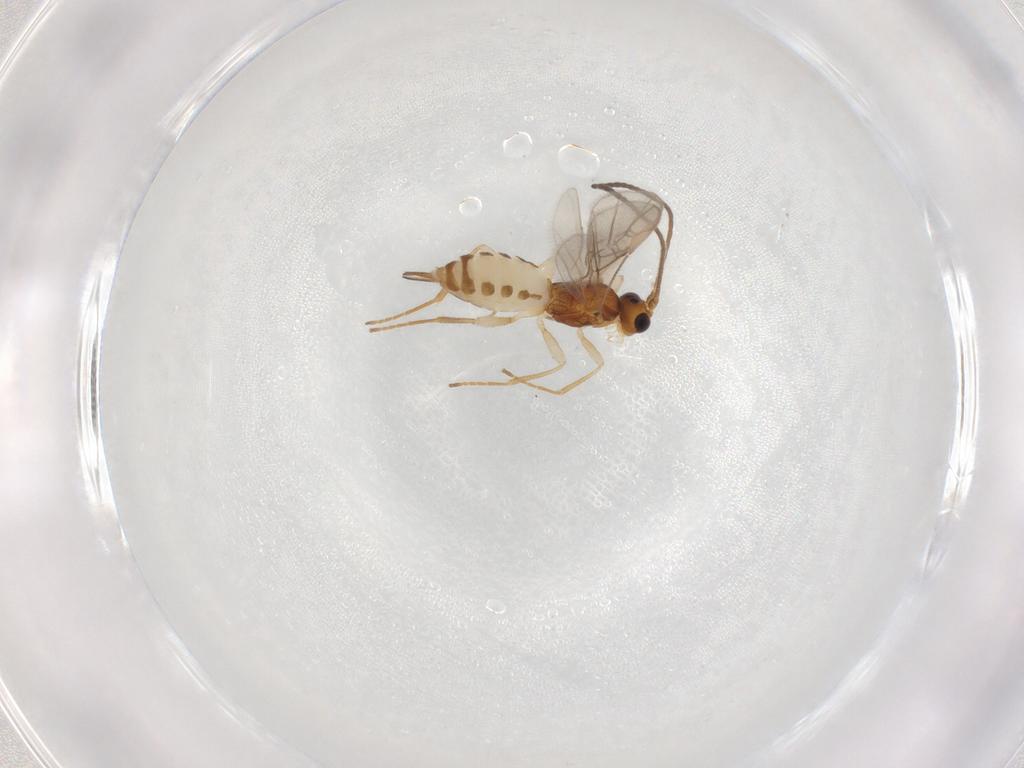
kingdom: Animalia
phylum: Arthropoda
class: Insecta
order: Hymenoptera
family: Braconidae
